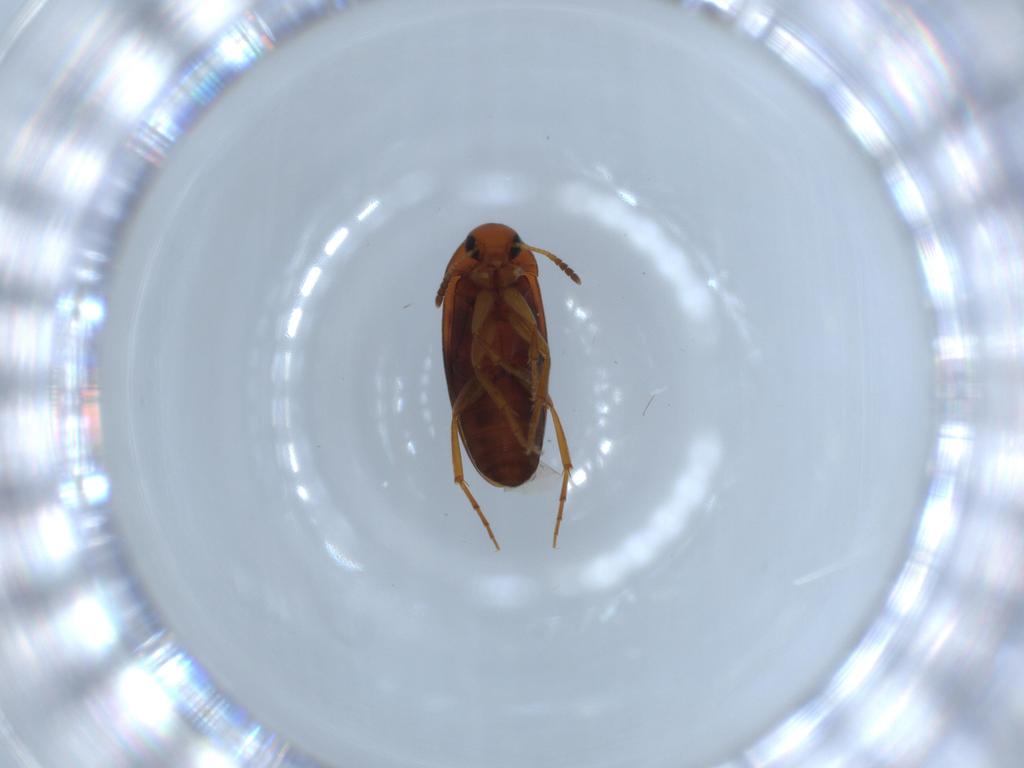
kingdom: Animalia
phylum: Arthropoda
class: Insecta
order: Coleoptera
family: Scraptiidae
